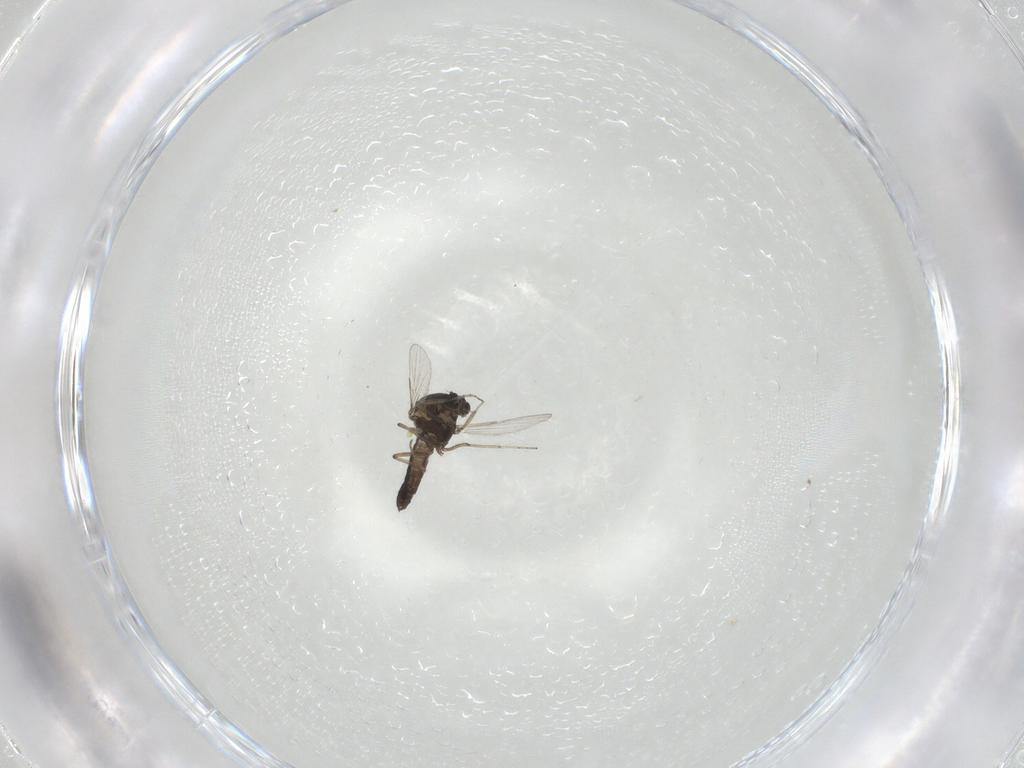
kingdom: Animalia
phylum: Arthropoda
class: Insecta
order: Diptera
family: Ceratopogonidae
